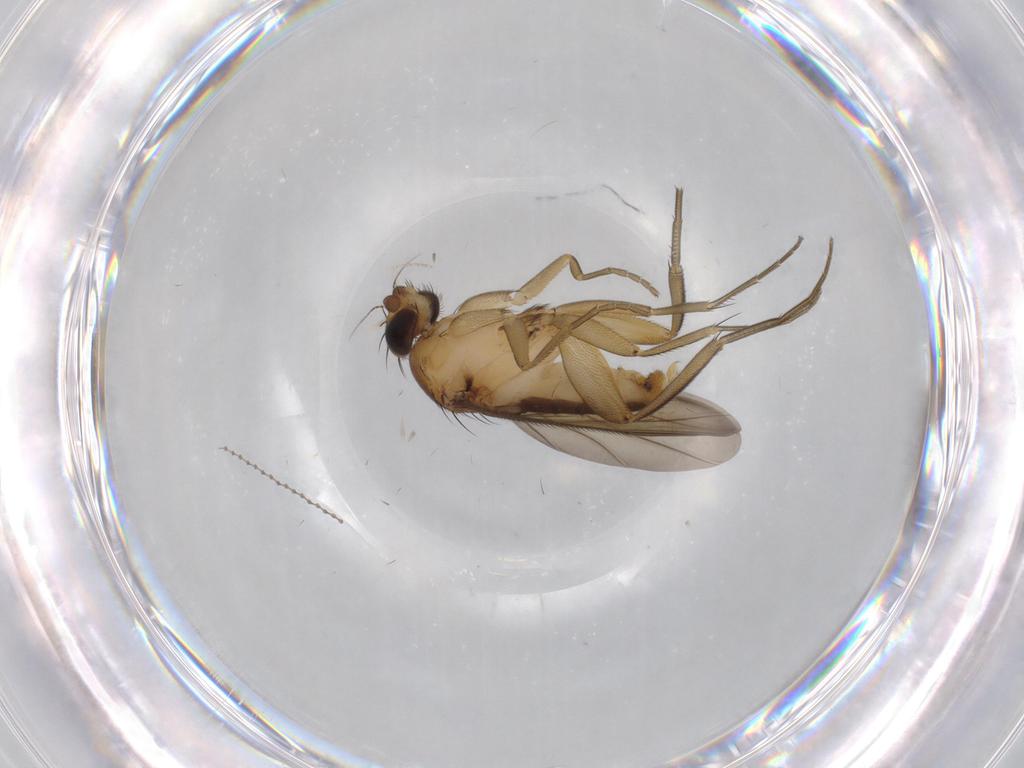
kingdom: Animalia
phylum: Arthropoda
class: Insecta
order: Diptera
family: Phoridae
